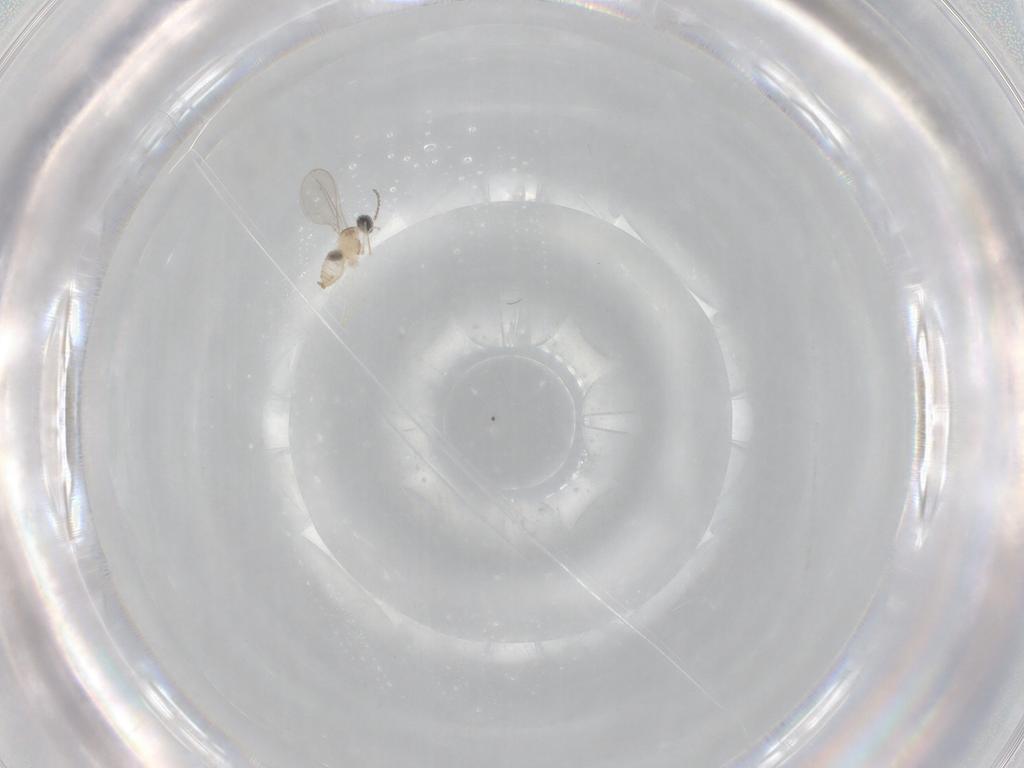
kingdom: Animalia
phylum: Arthropoda
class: Insecta
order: Diptera
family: Cecidomyiidae
